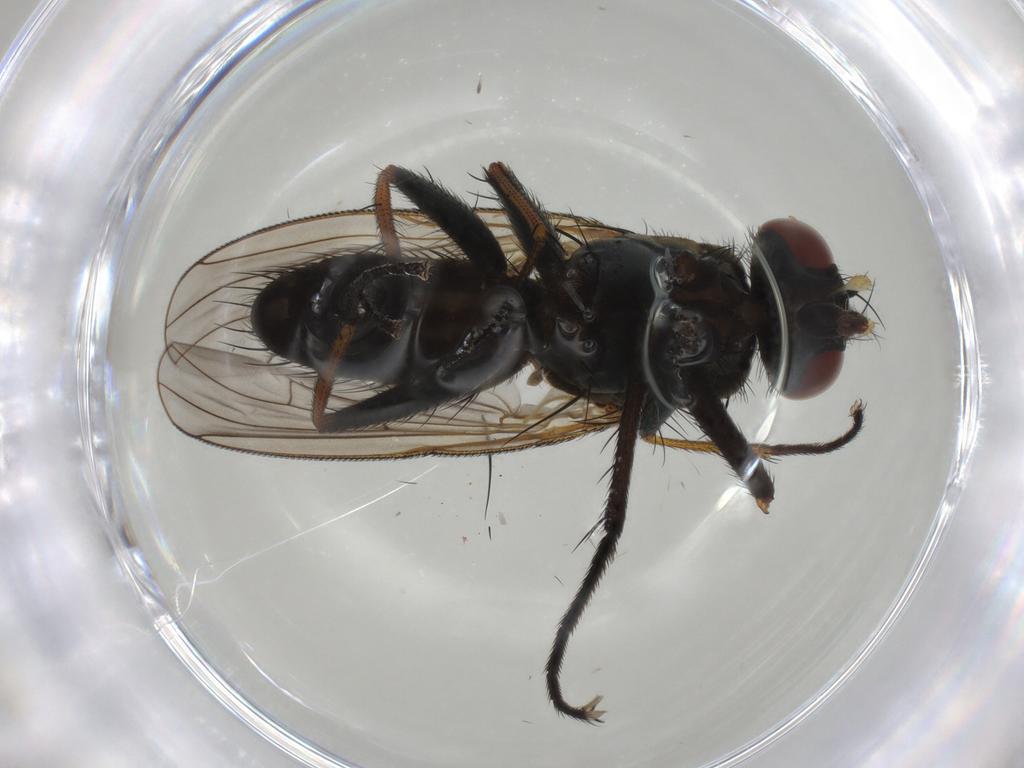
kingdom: Animalia
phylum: Arthropoda
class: Insecta
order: Diptera
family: Muscidae
